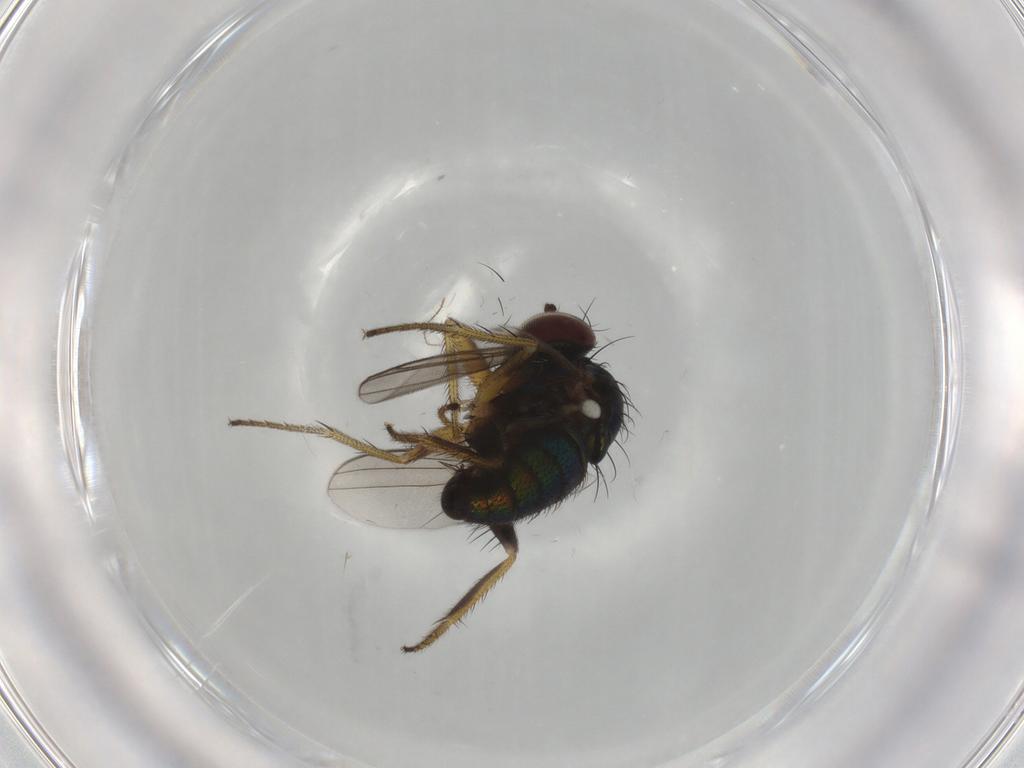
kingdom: Animalia
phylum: Arthropoda
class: Insecta
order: Diptera
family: Dolichopodidae
